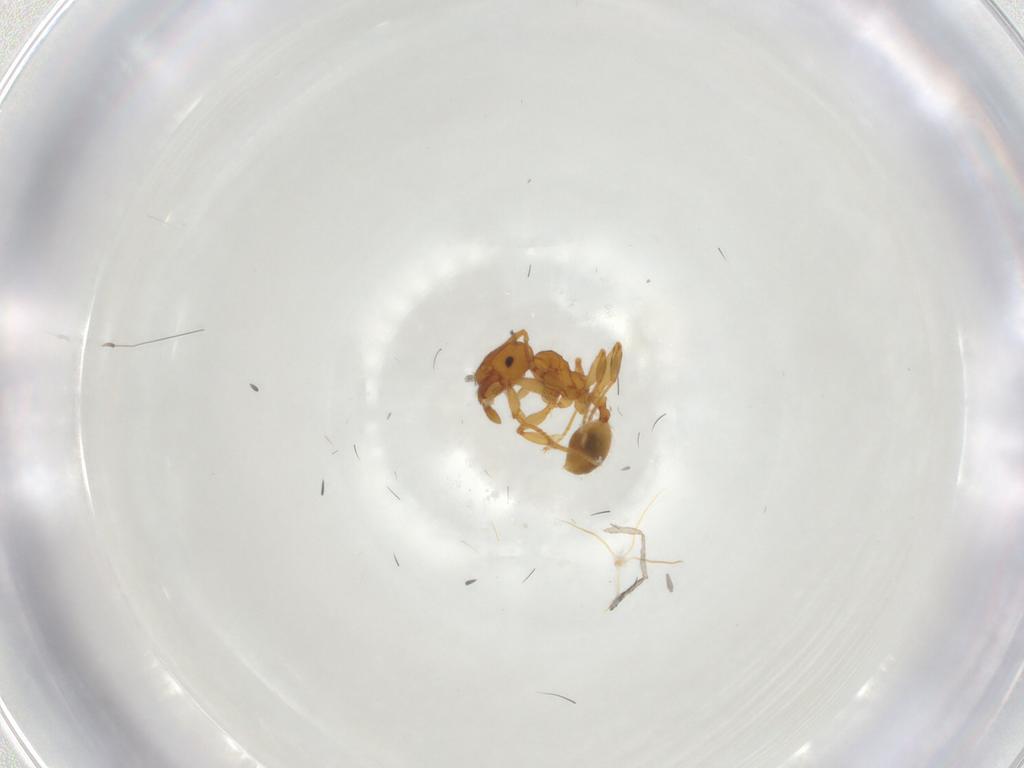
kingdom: Animalia
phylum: Arthropoda
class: Insecta
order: Hymenoptera
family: Formicidae
